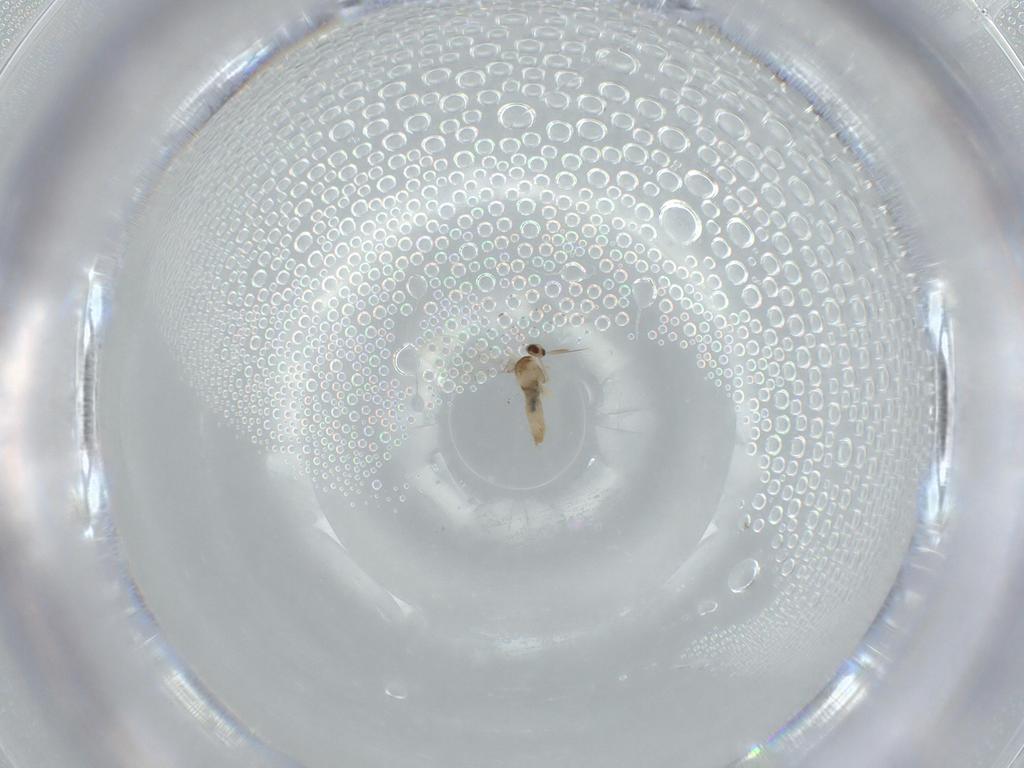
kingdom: Animalia
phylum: Arthropoda
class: Insecta
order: Diptera
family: Cecidomyiidae
